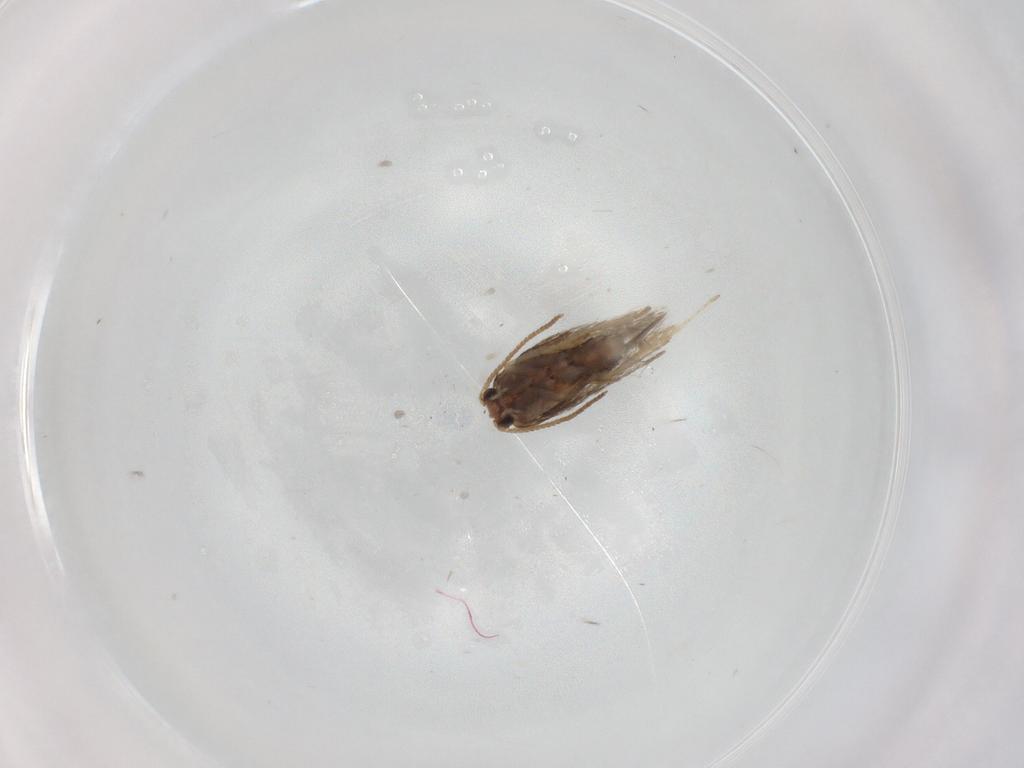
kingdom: Animalia
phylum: Arthropoda
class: Insecta
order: Lepidoptera
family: Nepticulidae
